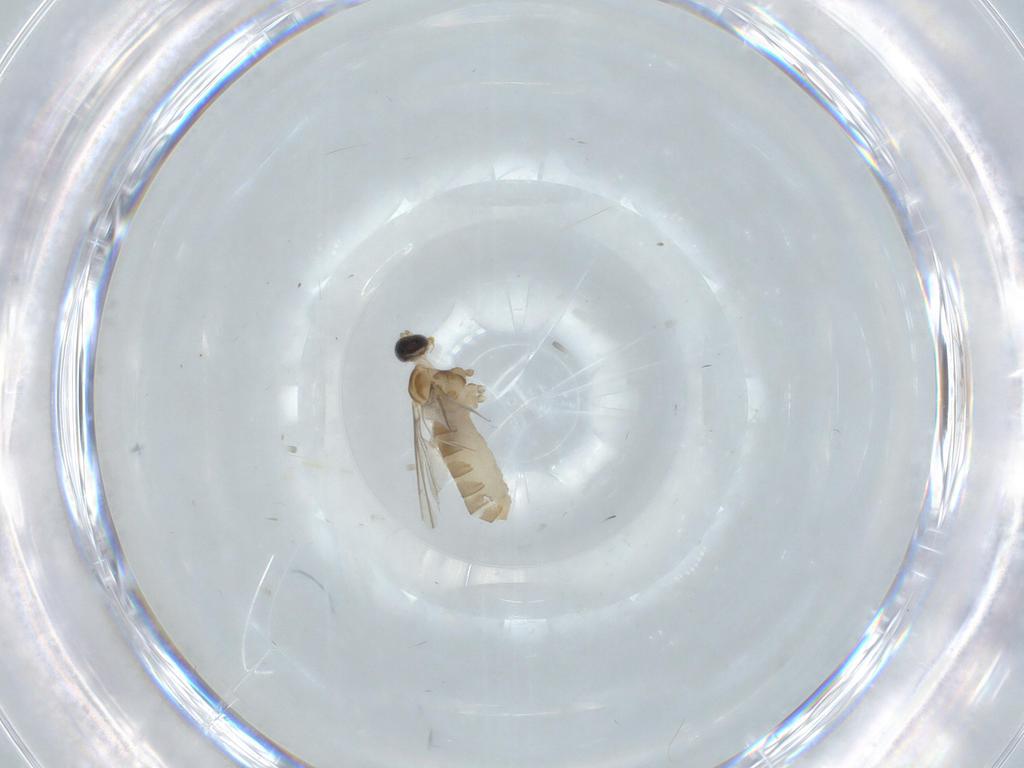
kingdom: Animalia
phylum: Arthropoda
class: Insecta
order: Diptera
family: Cecidomyiidae
